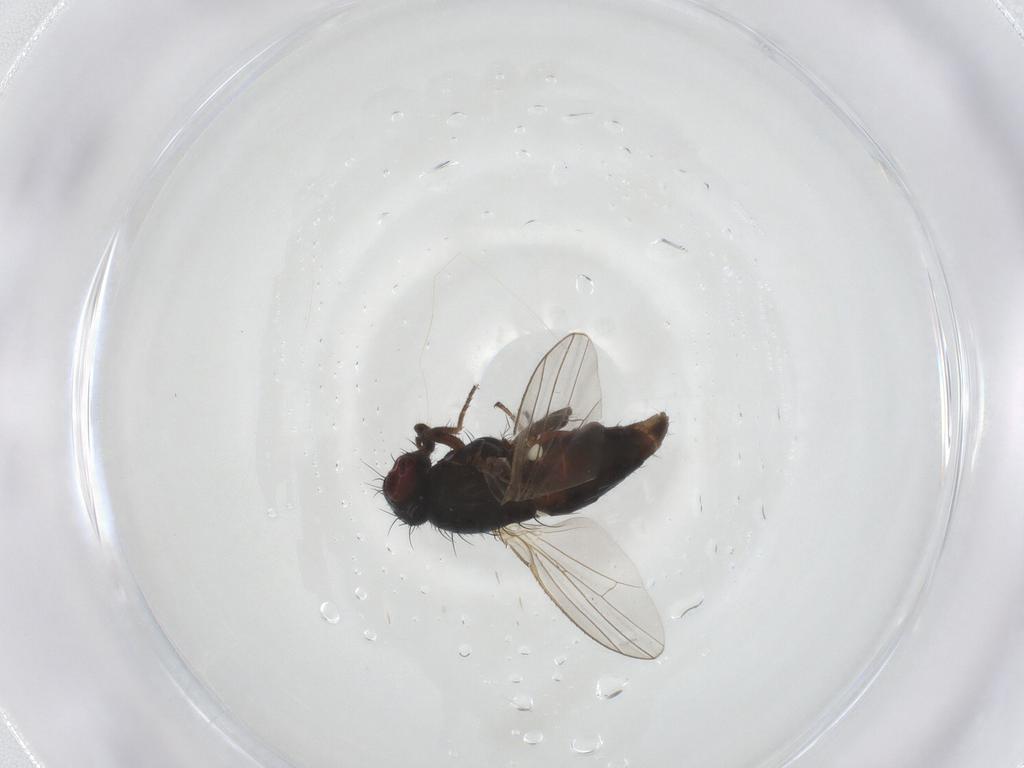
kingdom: Animalia
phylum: Arthropoda
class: Insecta
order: Diptera
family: Carnidae
